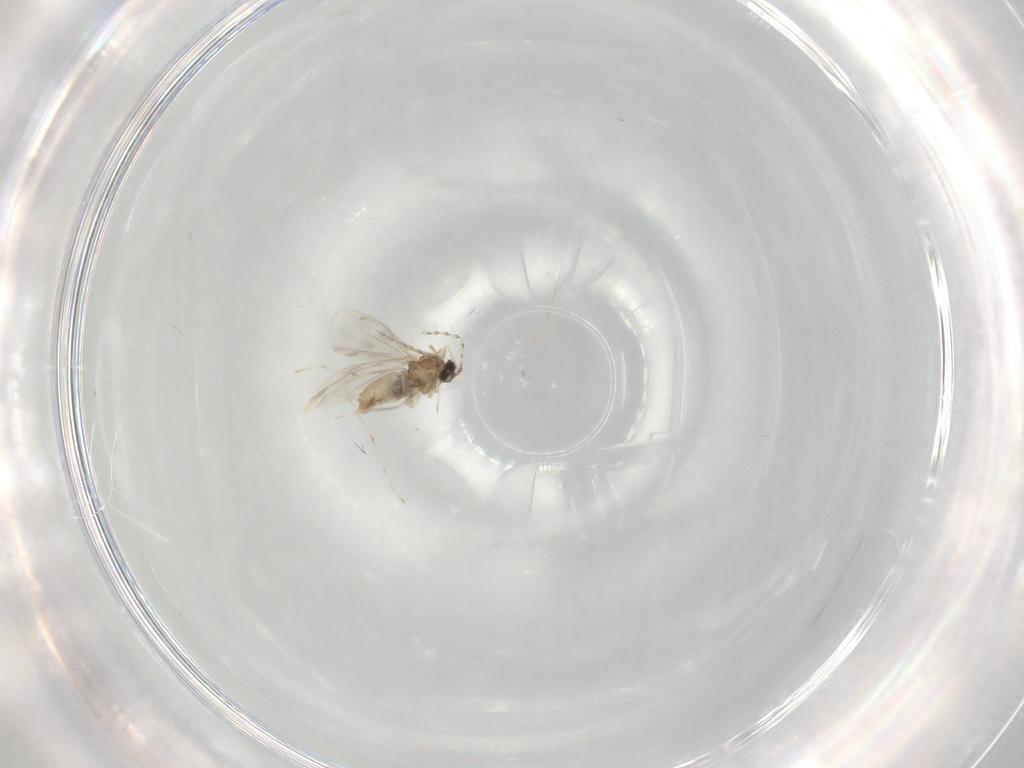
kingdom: Animalia
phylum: Arthropoda
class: Insecta
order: Diptera
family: Cecidomyiidae
